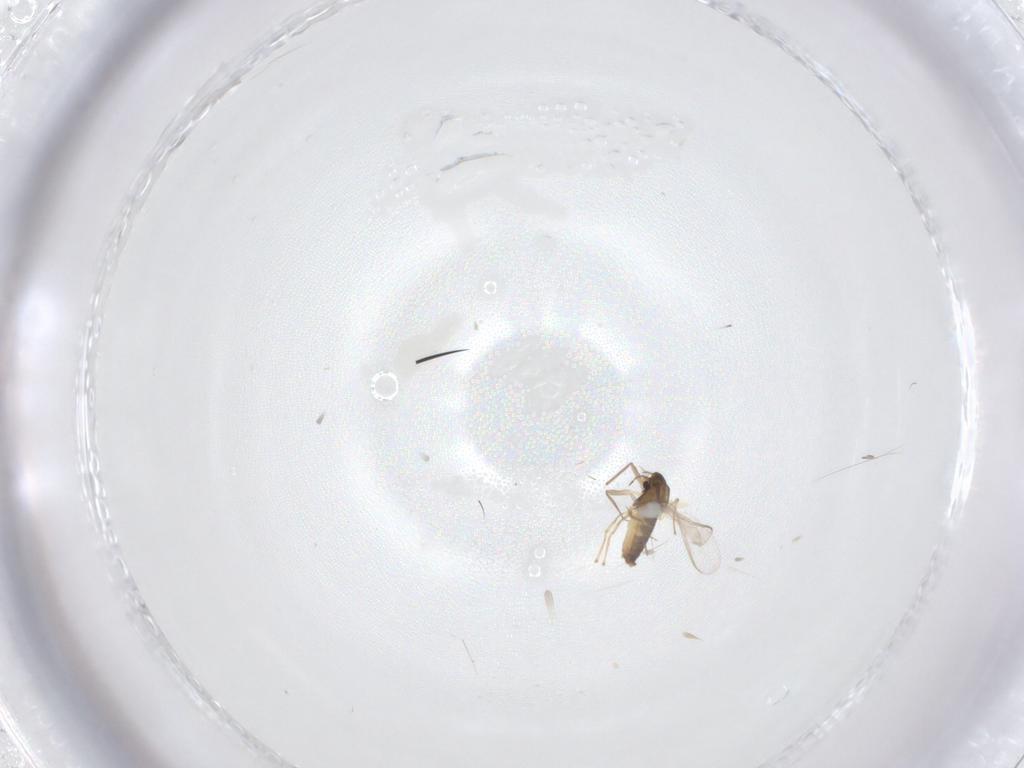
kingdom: Animalia
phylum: Arthropoda
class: Insecta
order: Diptera
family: Chironomidae
